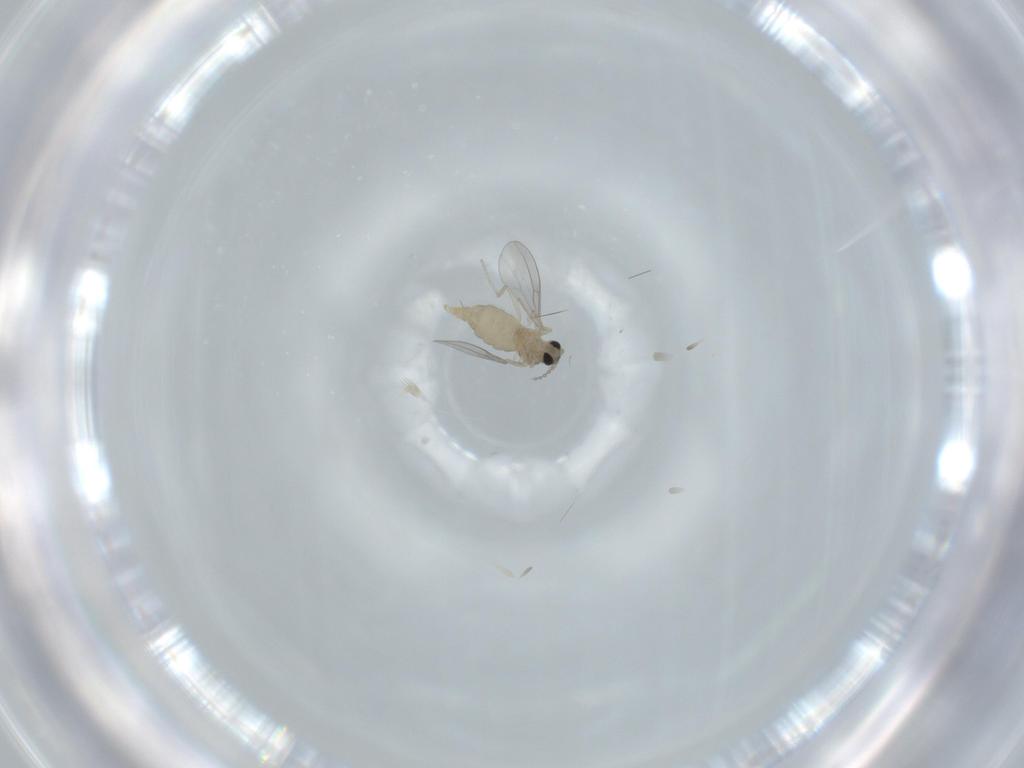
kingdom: Animalia
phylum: Arthropoda
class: Insecta
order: Diptera
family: Cecidomyiidae
